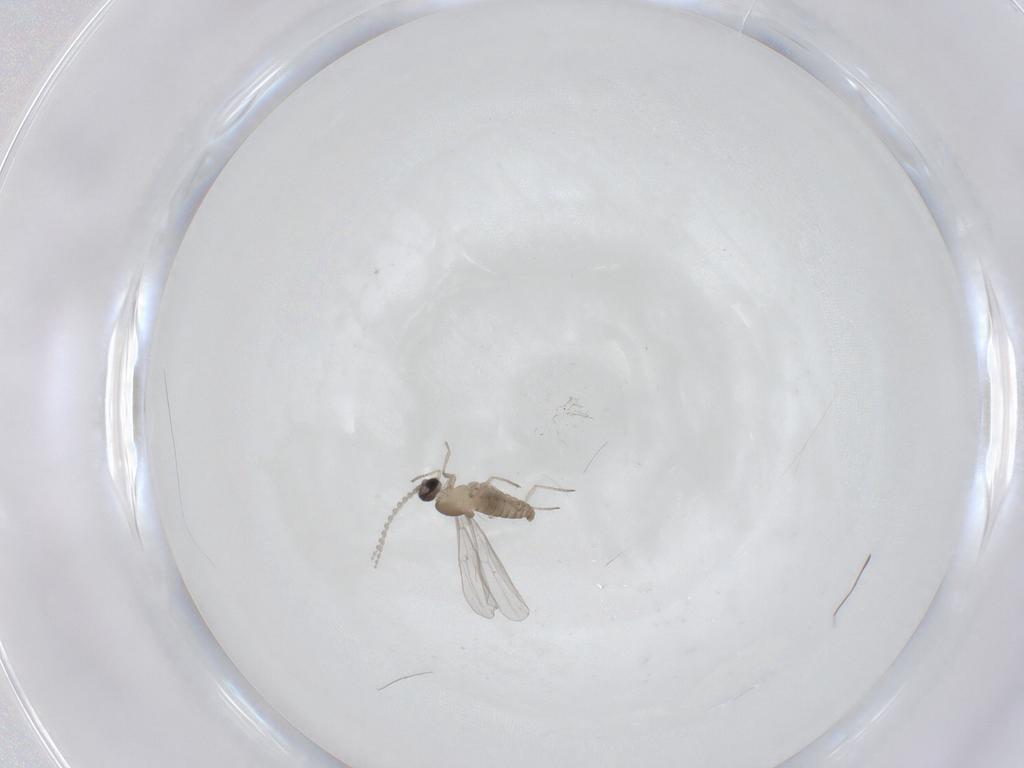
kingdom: Animalia
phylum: Arthropoda
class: Insecta
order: Diptera
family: Cecidomyiidae
